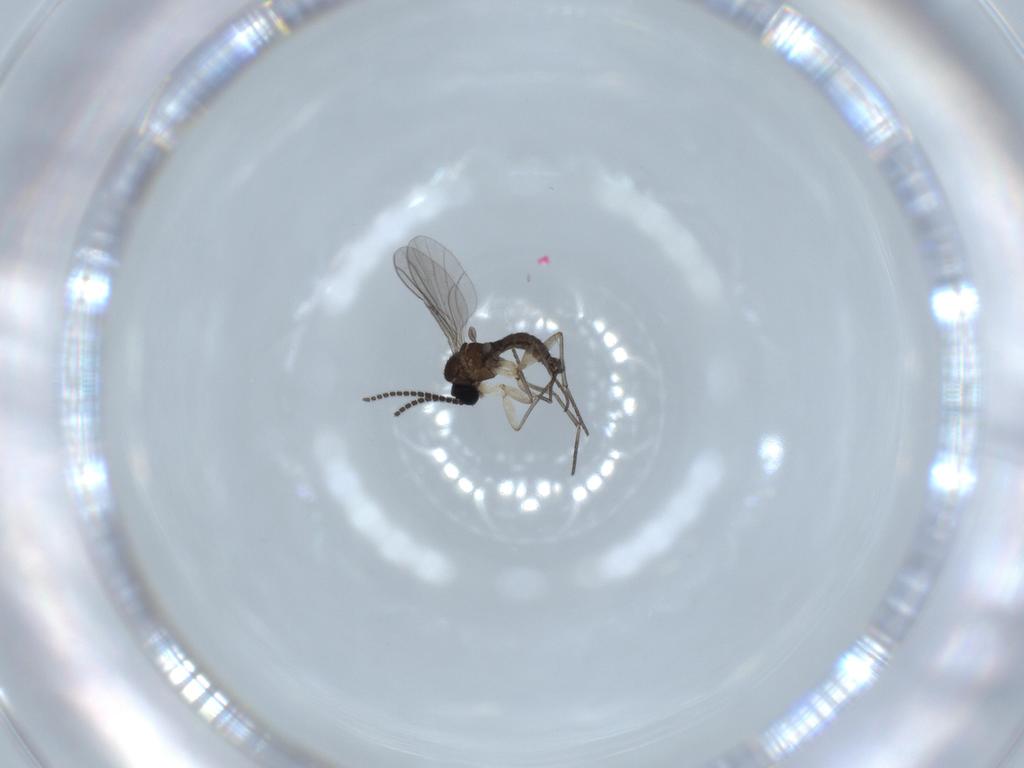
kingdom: Animalia
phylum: Arthropoda
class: Insecta
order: Diptera
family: Sciaridae
